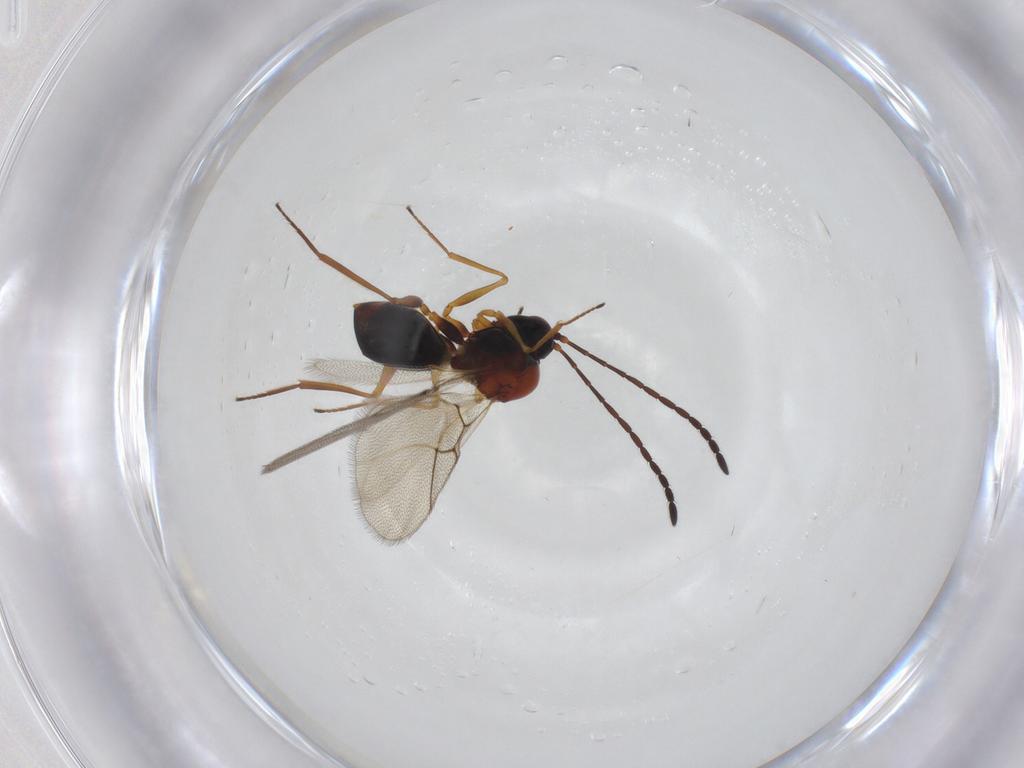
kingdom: Animalia
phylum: Arthropoda
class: Insecta
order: Hymenoptera
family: Figitidae
